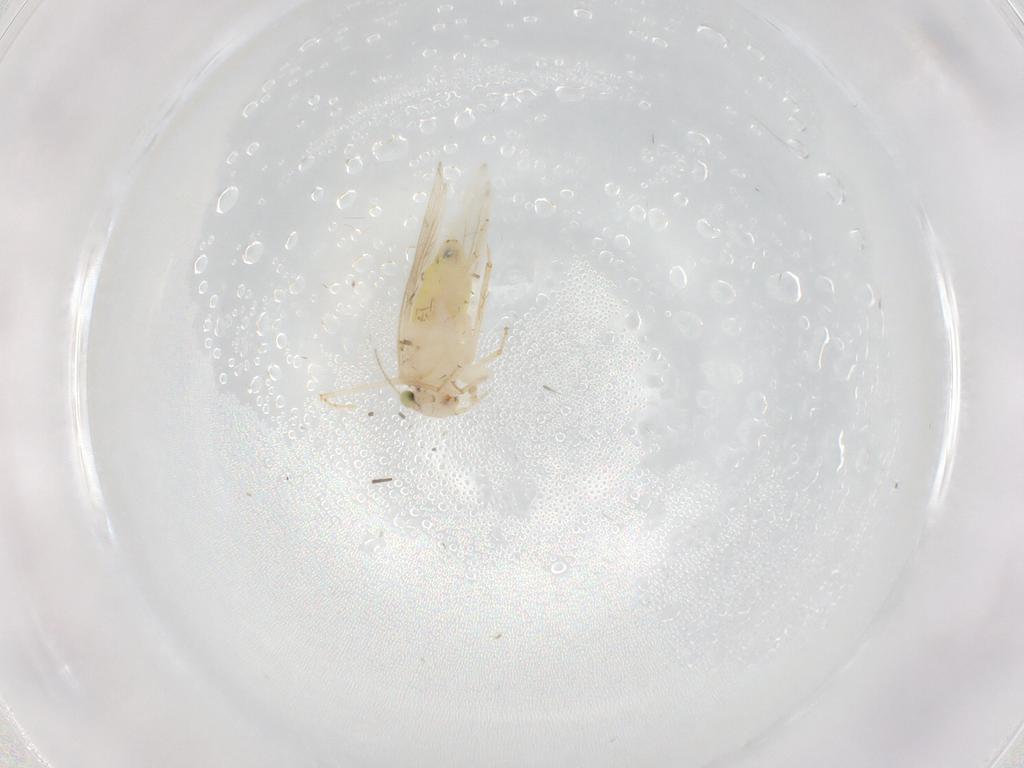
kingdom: Animalia
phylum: Arthropoda
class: Insecta
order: Psocodea
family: Lepidopsocidae
